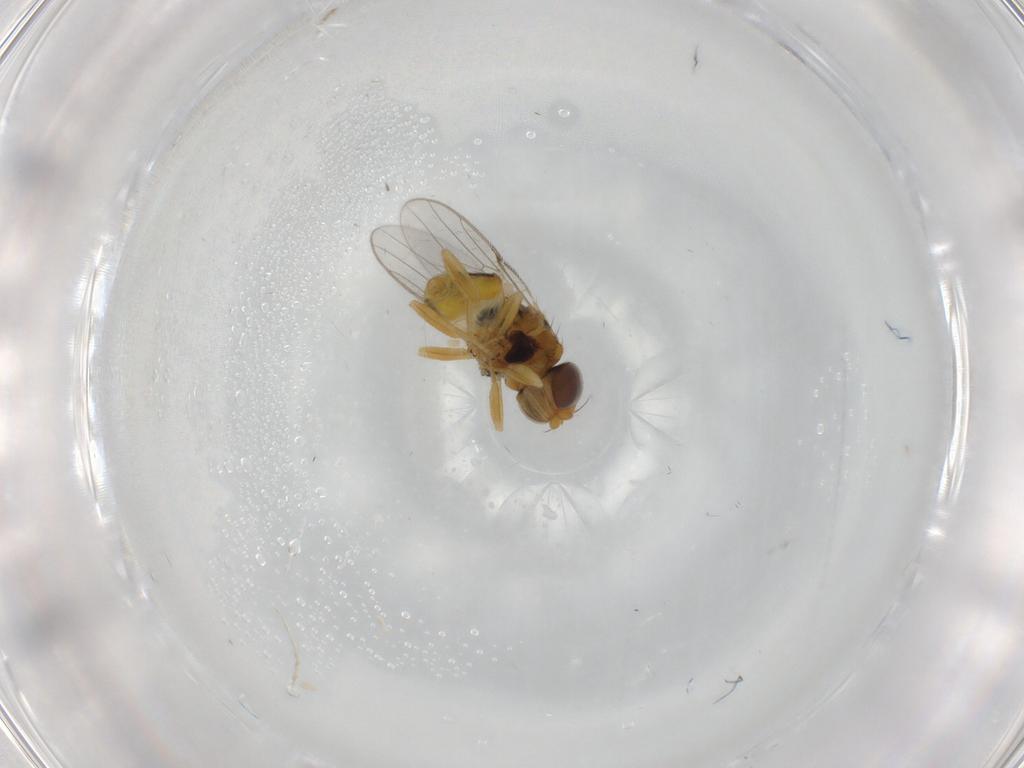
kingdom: Animalia
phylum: Arthropoda
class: Insecta
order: Diptera
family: Chloropidae
